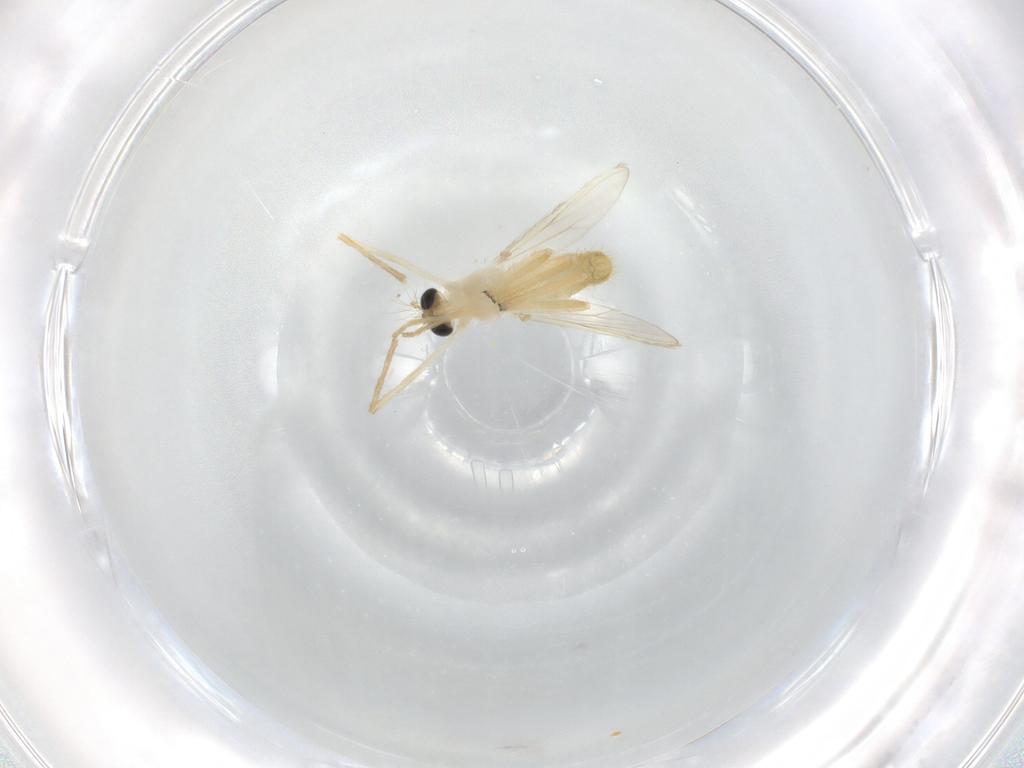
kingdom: Animalia
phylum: Arthropoda
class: Insecta
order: Diptera
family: Chironomidae
